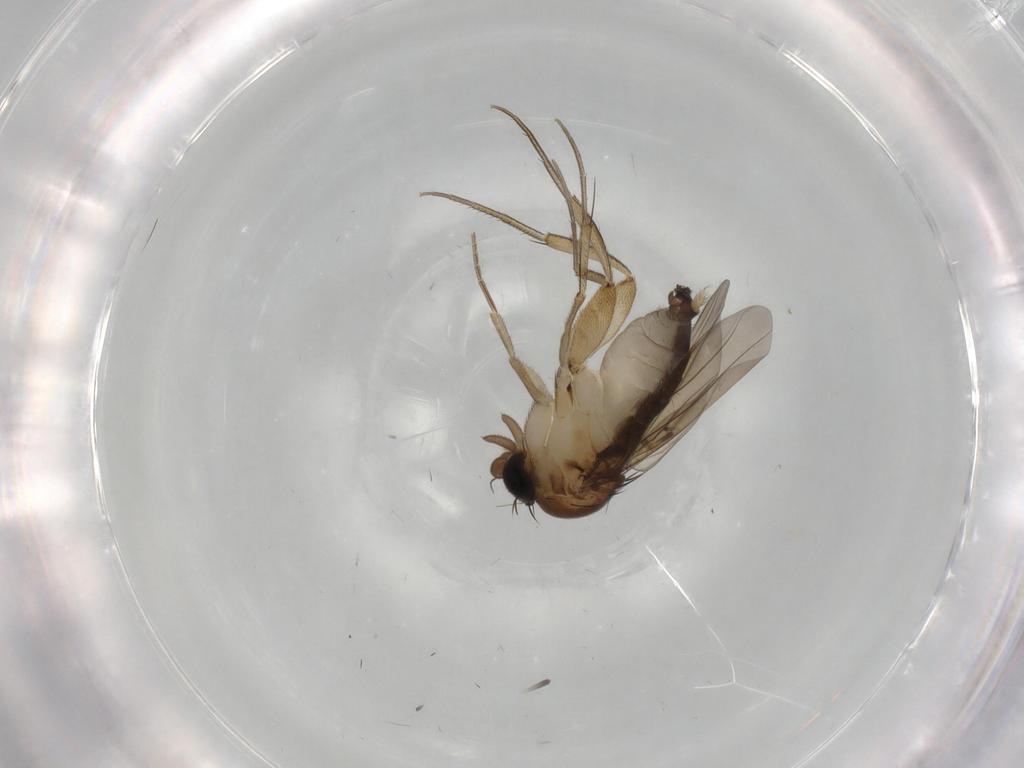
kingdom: Animalia
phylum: Arthropoda
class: Insecta
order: Diptera
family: Phoridae
